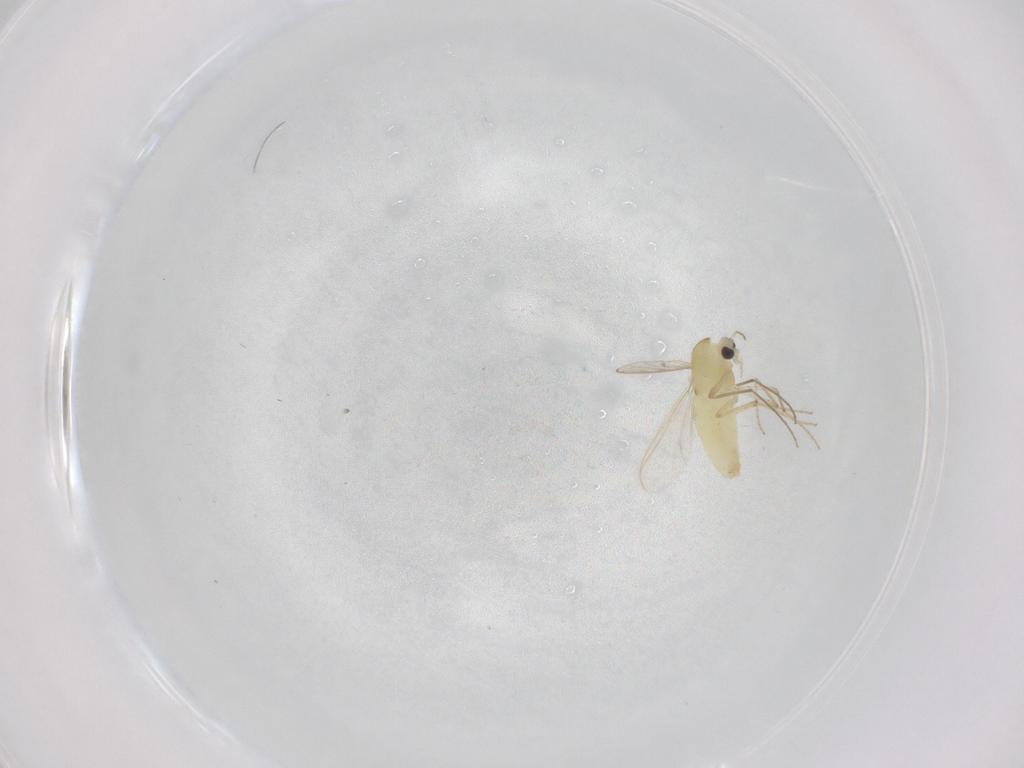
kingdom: Animalia
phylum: Arthropoda
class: Insecta
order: Diptera
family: Chironomidae
